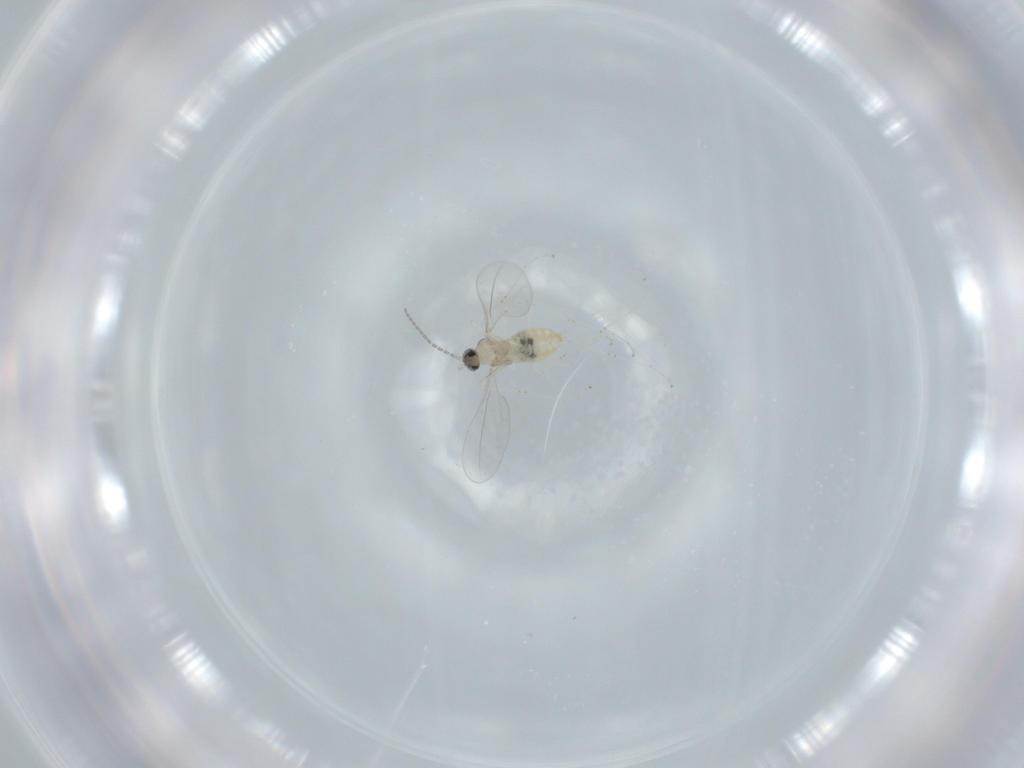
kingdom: Animalia
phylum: Arthropoda
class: Insecta
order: Diptera
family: Cecidomyiidae
